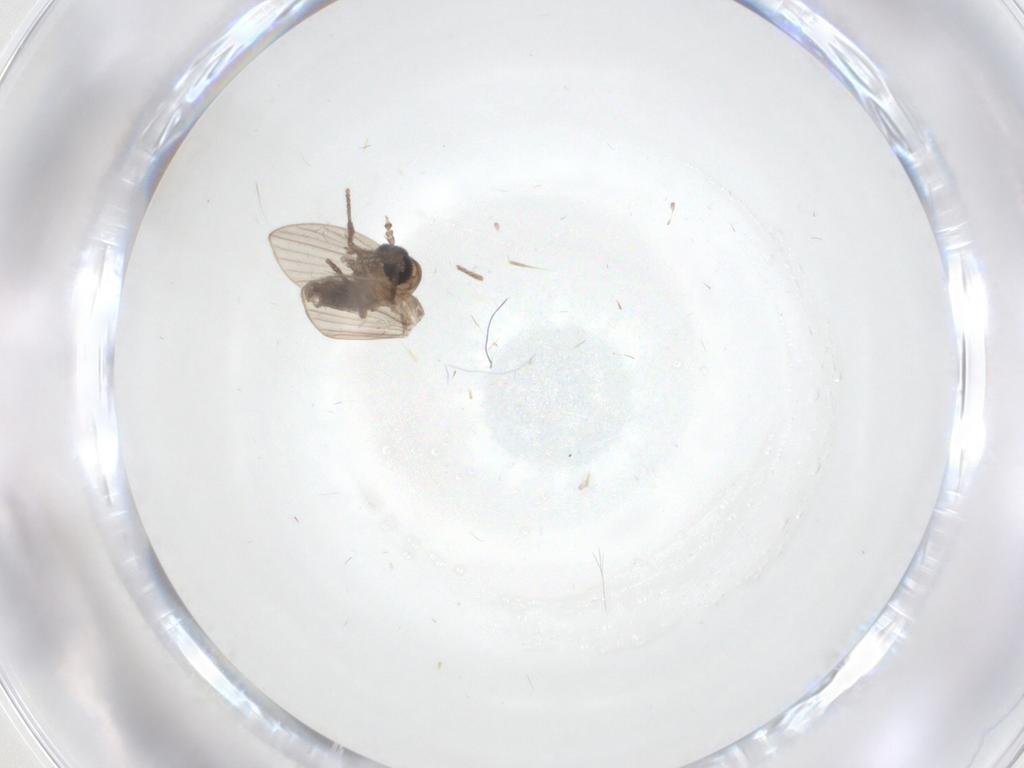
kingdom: Animalia
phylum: Arthropoda
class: Insecta
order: Diptera
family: Psychodidae
